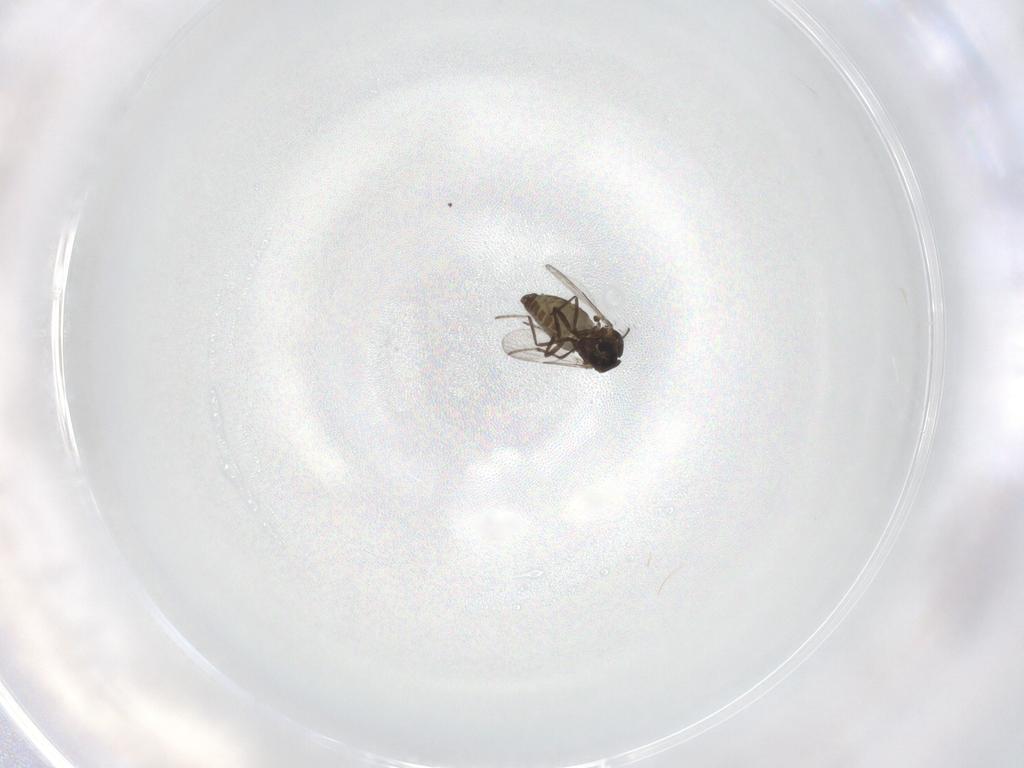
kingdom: Animalia
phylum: Arthropoda
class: Insecta
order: Diptera
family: Ceratopogonidae
